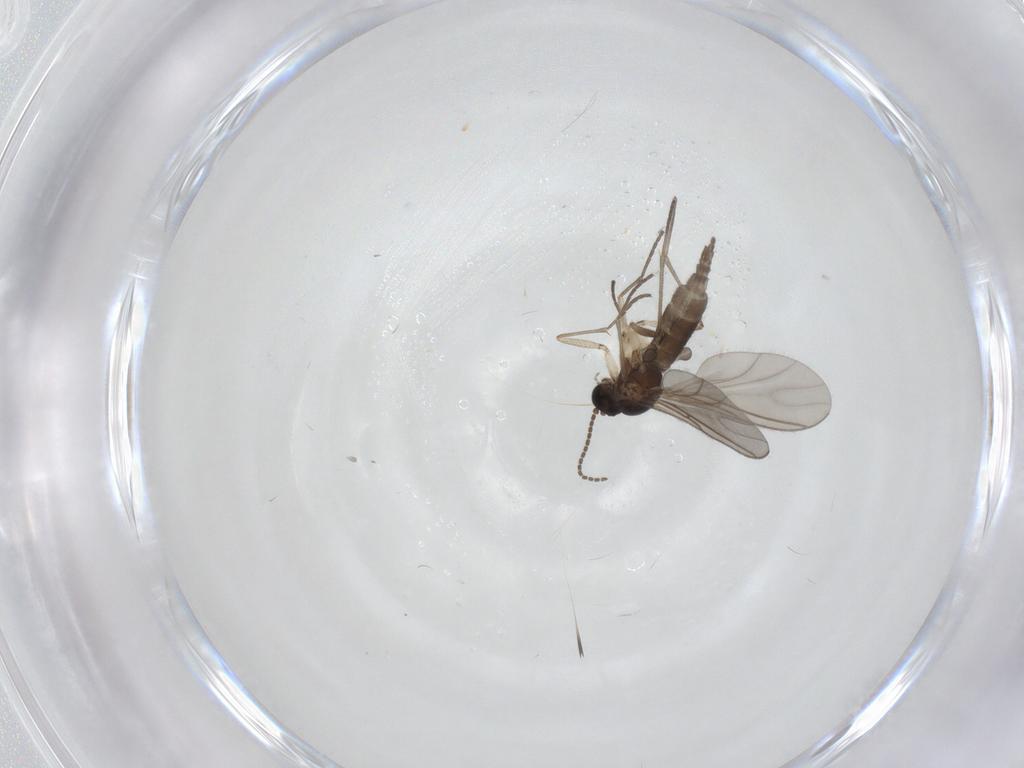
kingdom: Animalia
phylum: Arthropoda
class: Insecta
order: Diptera
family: Sciaridae
